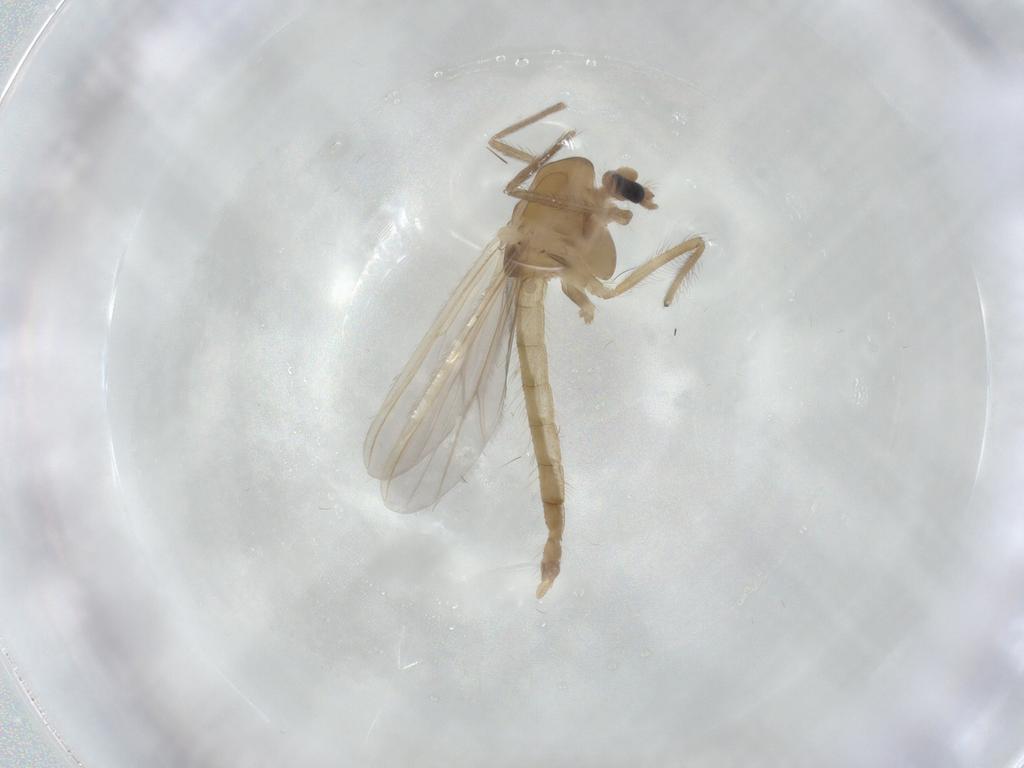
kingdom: Animalia
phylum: Arthropoda
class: Insecta
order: Diptera
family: Chironomidae
